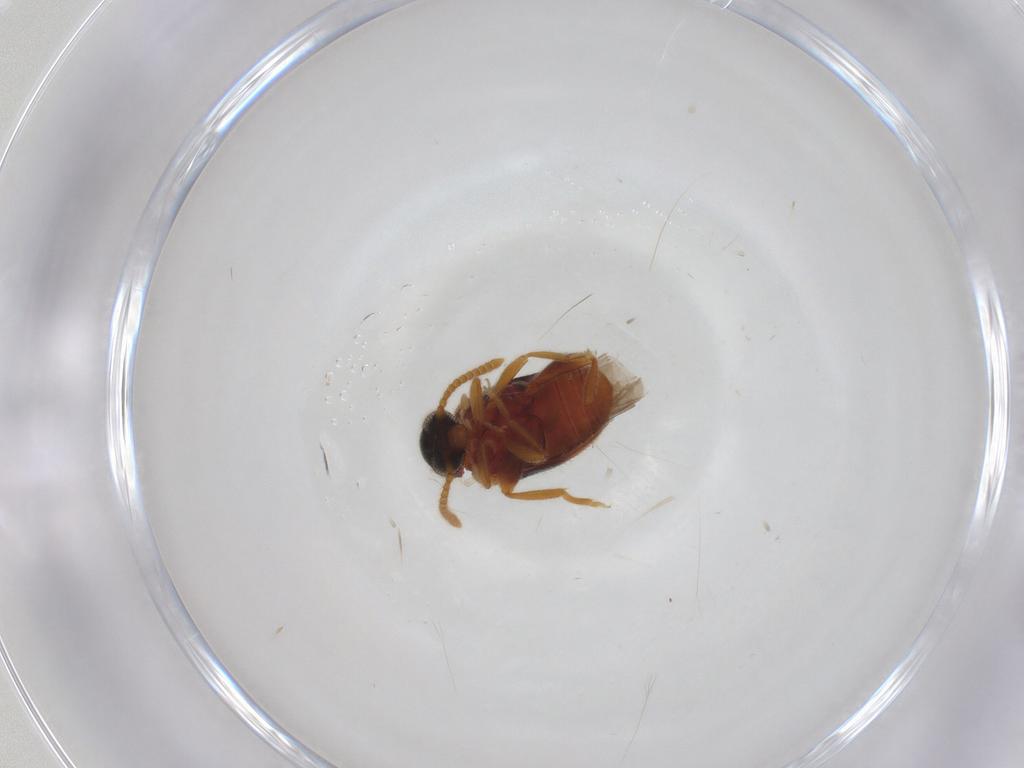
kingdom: Animalia
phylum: Arthropoda
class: Insecta
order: Coleoptera
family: Aderidae
